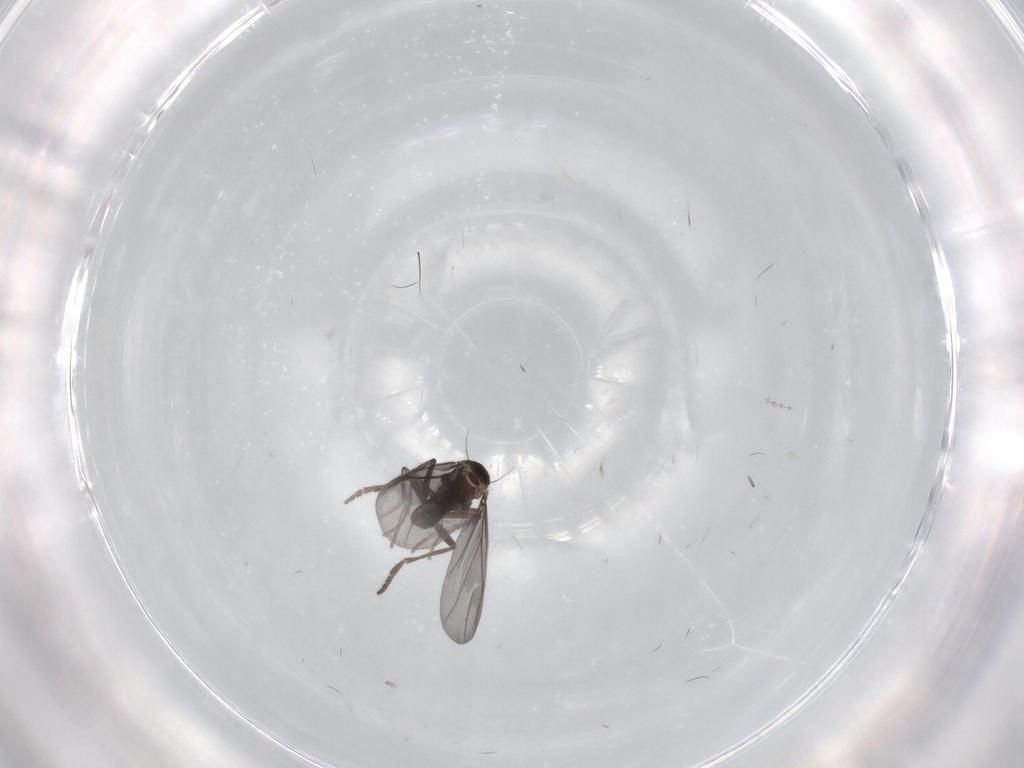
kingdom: Animalia
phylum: Arthropoda
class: Insecta
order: Diptera
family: Phoridae
